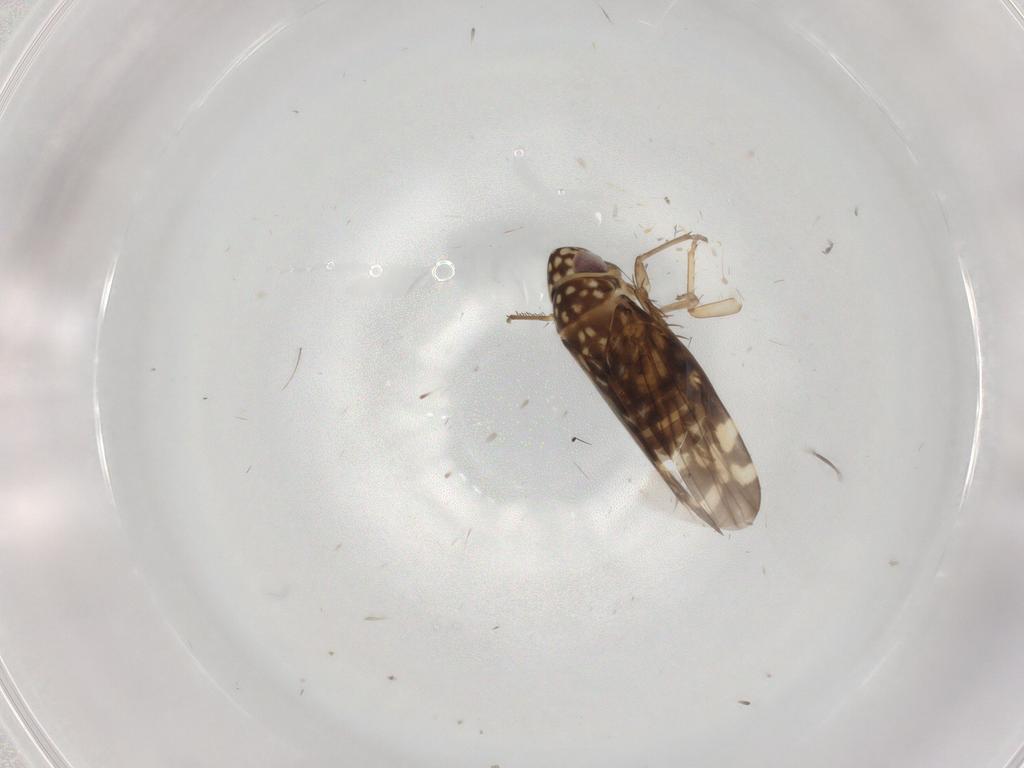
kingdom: Animalia
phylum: Arthropoda
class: Insecta
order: Hemiptera
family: Cicadellidae
